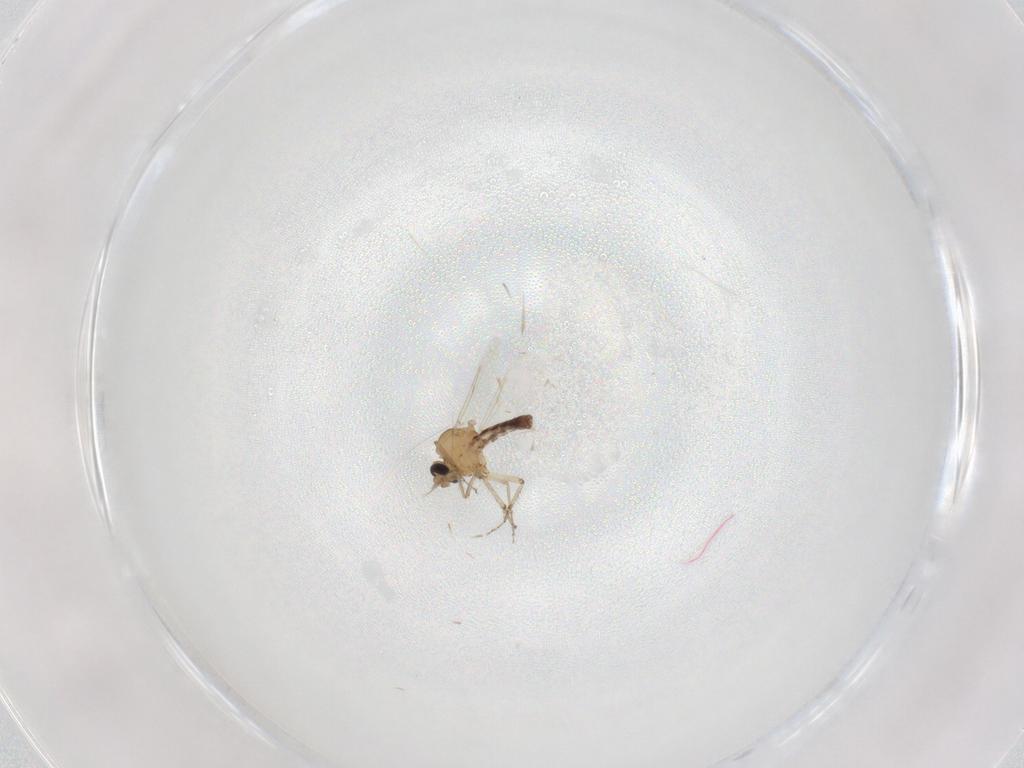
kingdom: Animalia
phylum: Arthropoda
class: Insecta
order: Diptera
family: Ceratopogonidae
